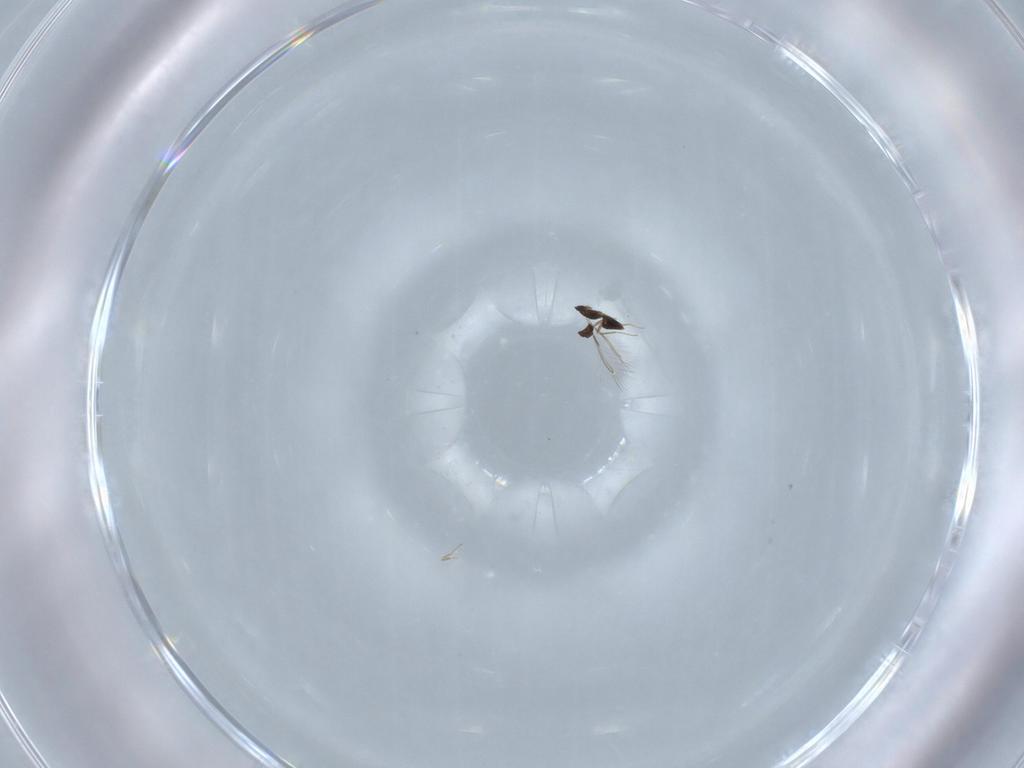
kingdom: Animalia
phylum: Arthropoda
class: Insecta
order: Hymenoptera
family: Mymaridae
